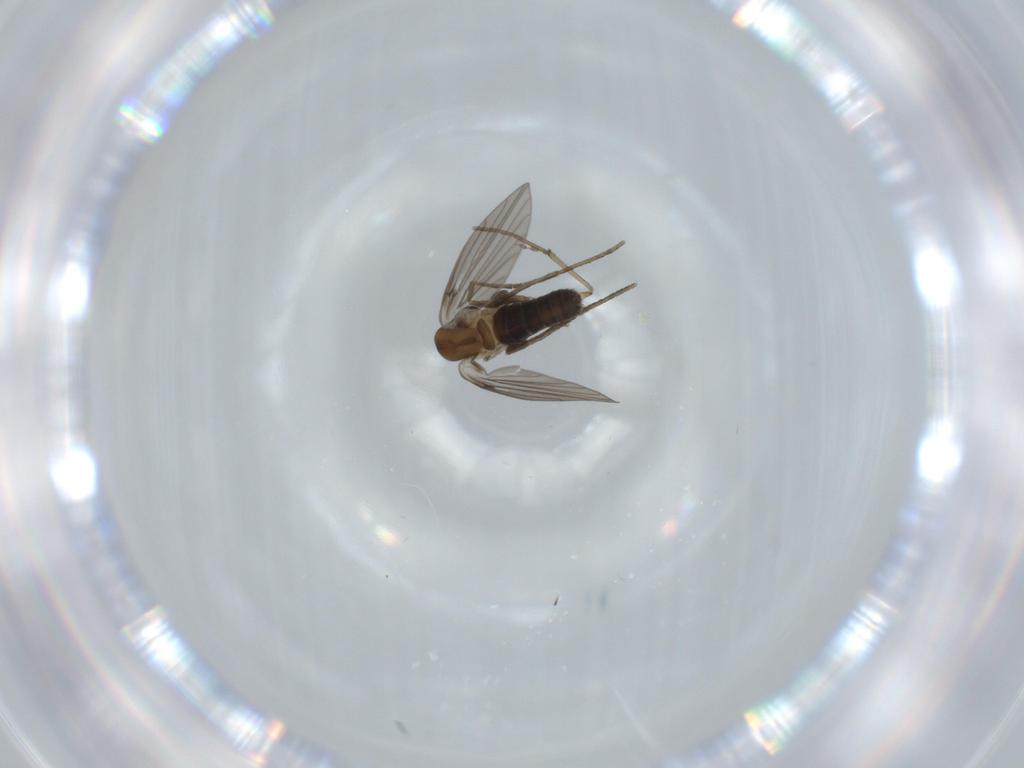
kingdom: Animalia
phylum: Arthropoda
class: Insecta
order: Diptera
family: Psychodidae
